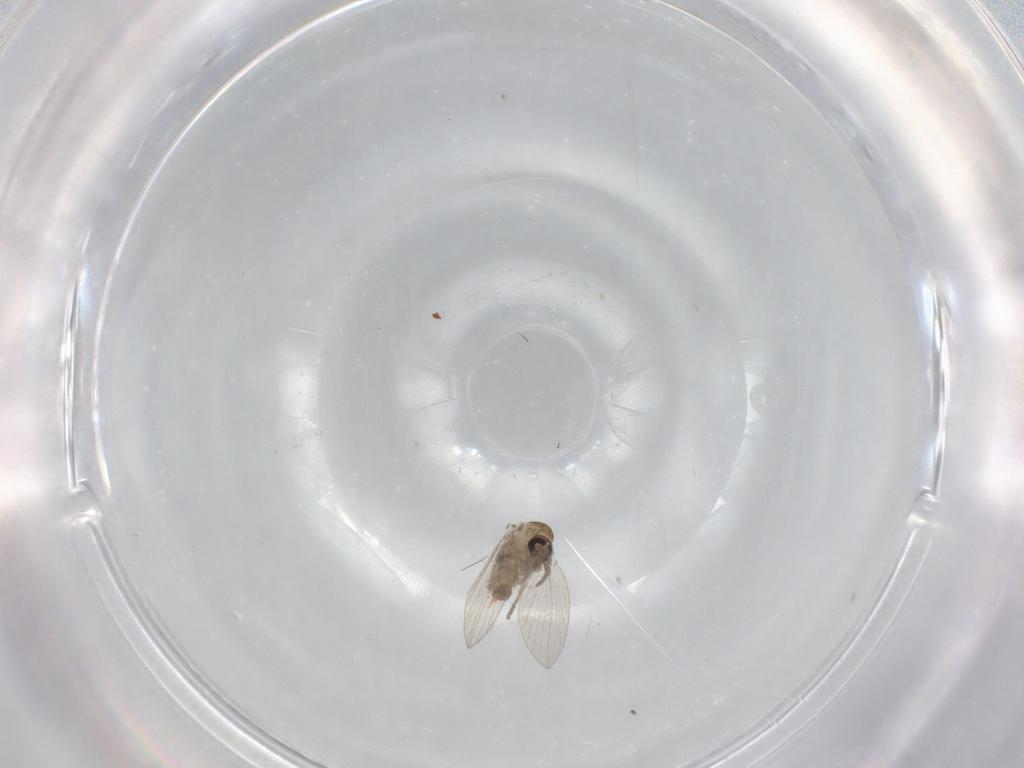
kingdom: Animalia
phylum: Arthropoda
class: Insecta
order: Diptera
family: Psychodidae
